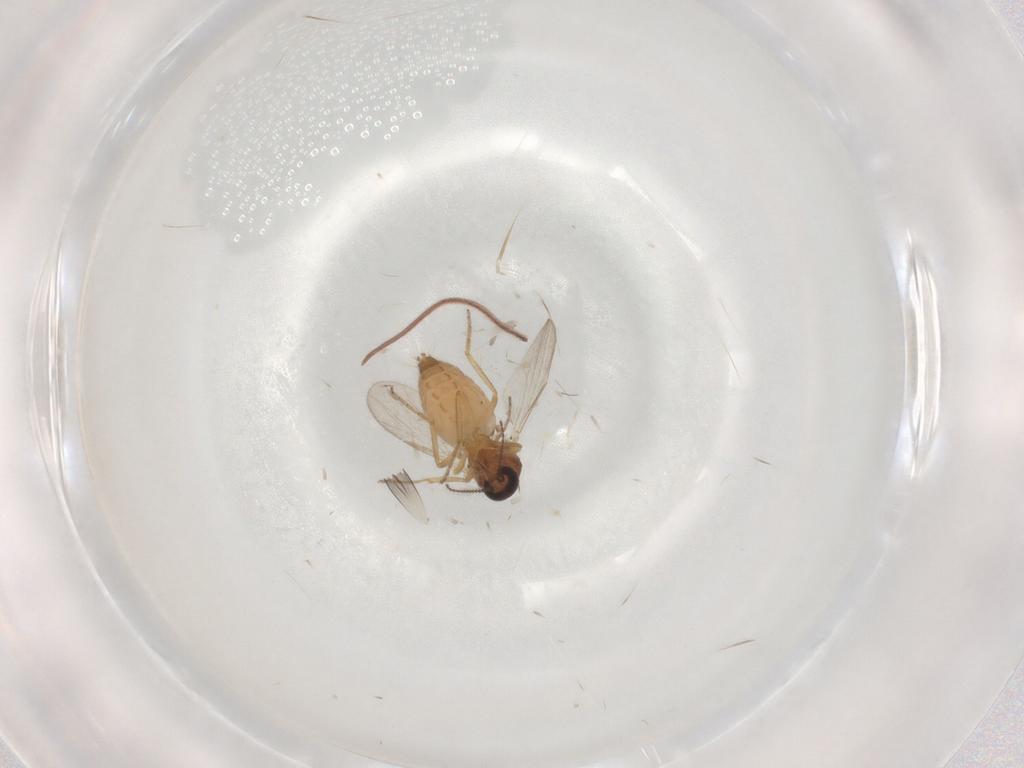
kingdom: Animalia
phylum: Arthropoda
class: Insecta
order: Diptera
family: Ceratopogonidae
